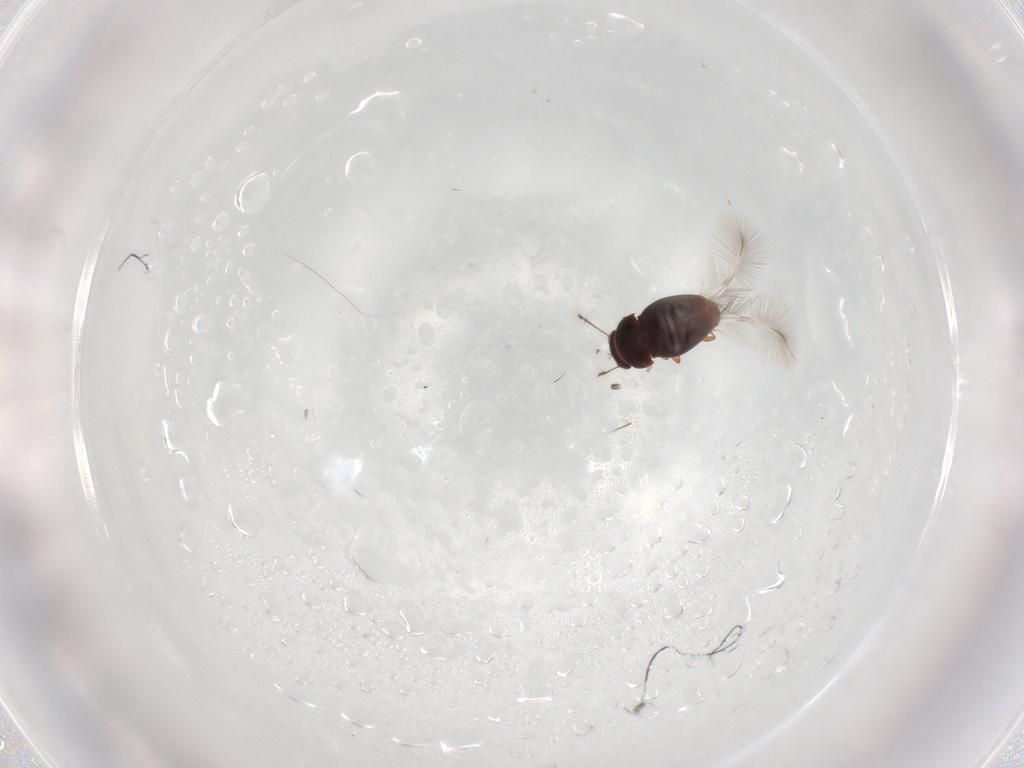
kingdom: Animalia
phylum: Arthropoda
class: Insecta
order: Coleoptera
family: Ptiliidae
